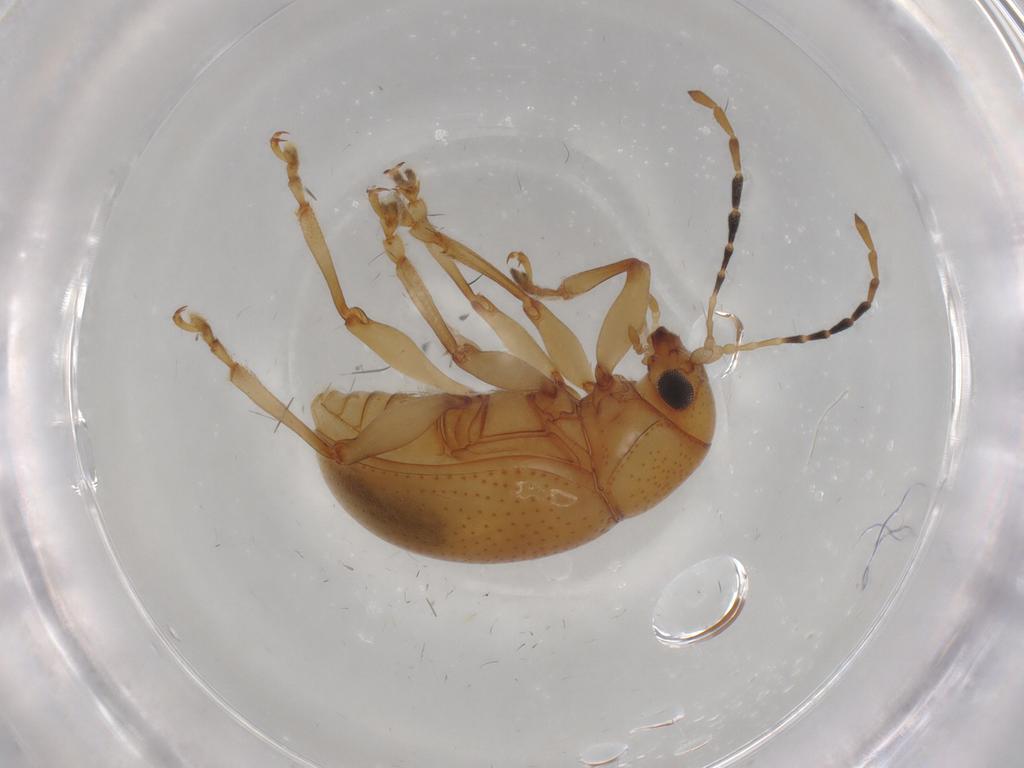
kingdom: Animalia
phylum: Arthropoda
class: Insecta
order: Coleoptera
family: Chrysomelidae
